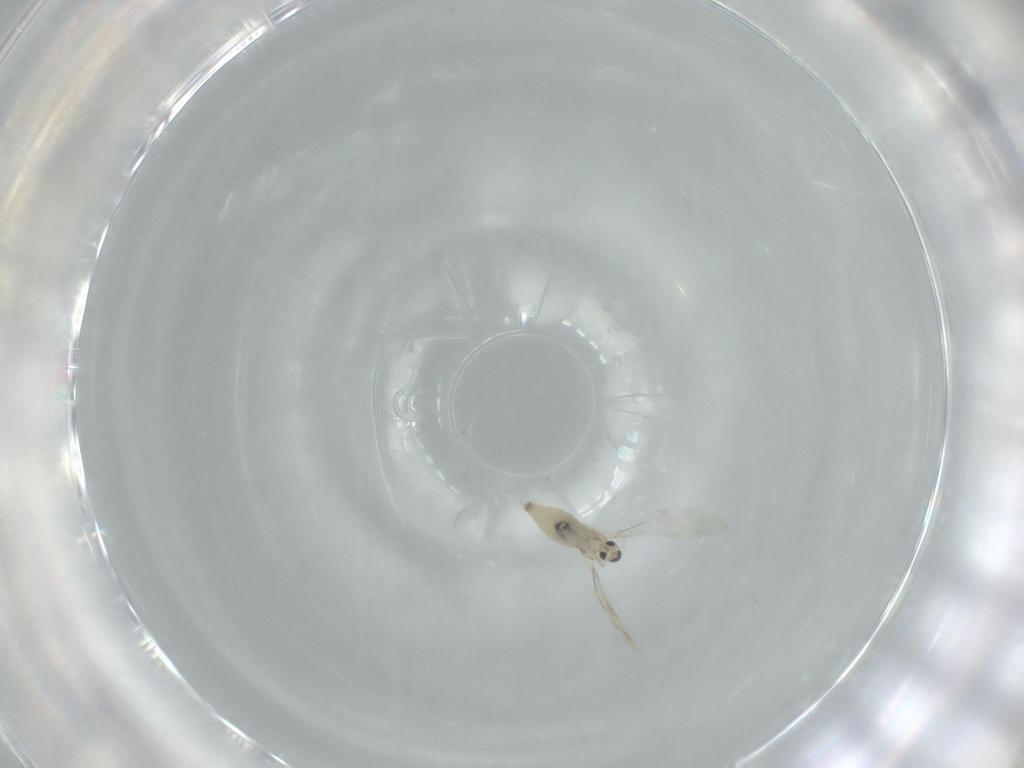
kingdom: Animalia
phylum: Arthropoda
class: Insecta
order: Diptera
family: Cecidomyiidae
